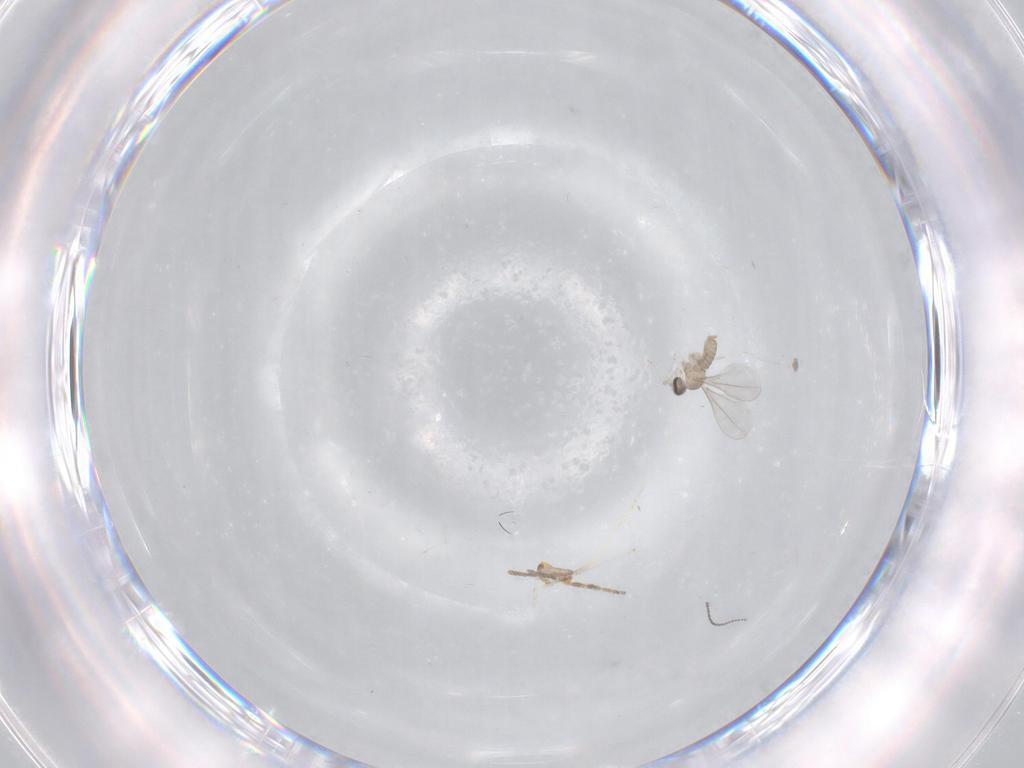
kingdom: Animalia
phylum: Arthropoda
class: Insecta
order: Diptera
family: Ceratopogonidae
